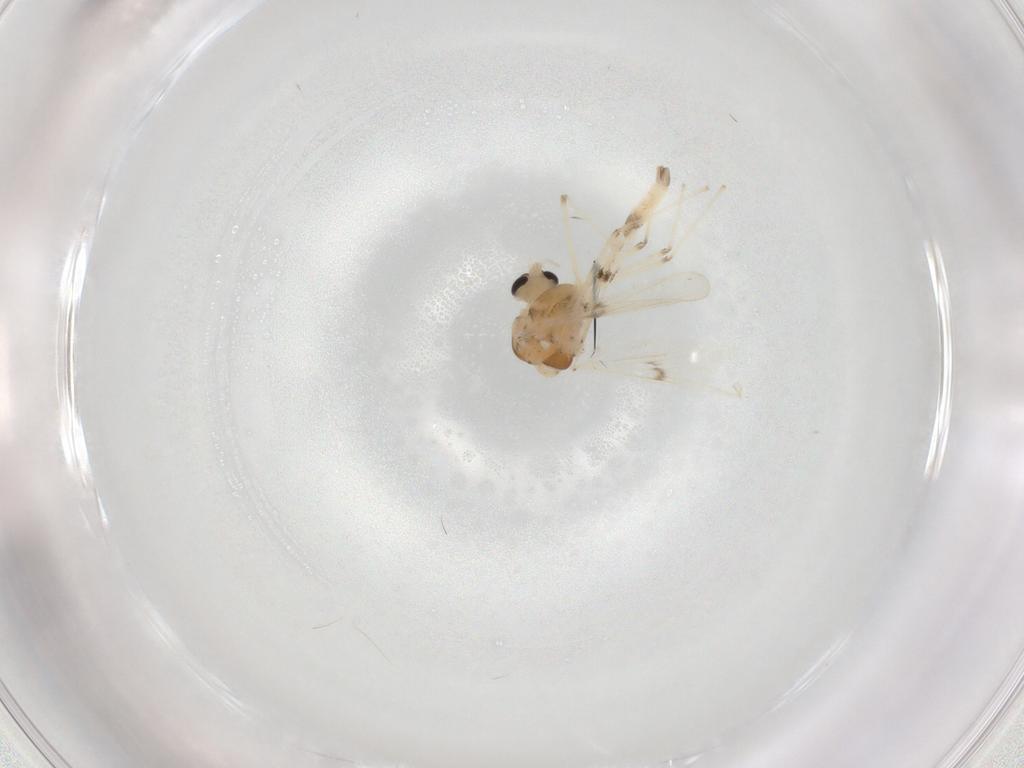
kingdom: Animalia
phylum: Arthropoda
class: Insecta
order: Diptera
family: Chironomidae
